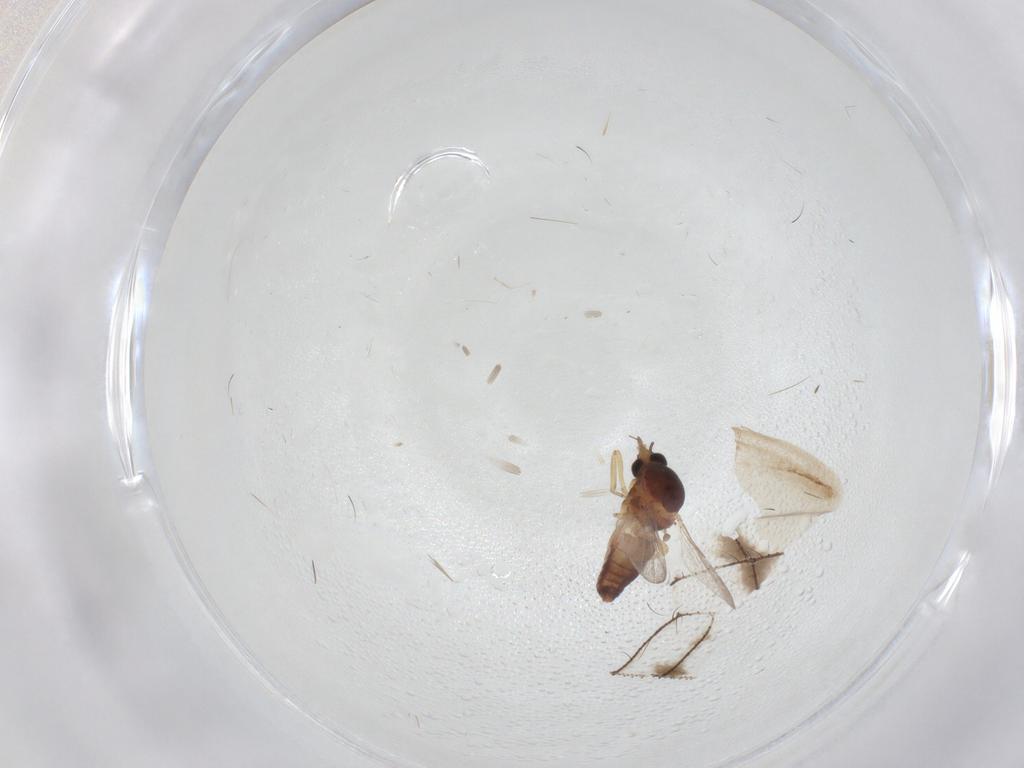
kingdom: Animalia
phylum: Arthropoda
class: Insecta
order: Diptera
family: Ceratopogonidae
